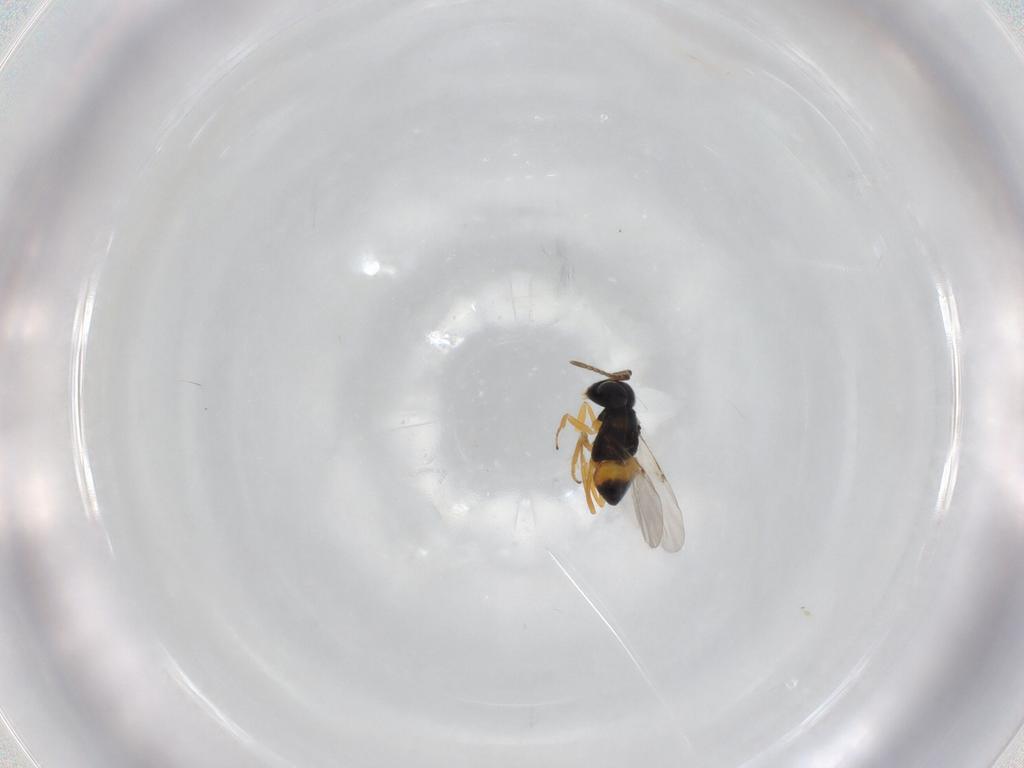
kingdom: Animalia
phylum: Arthropoda
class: Insecta
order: Hymenoptera
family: Encyrtidae
